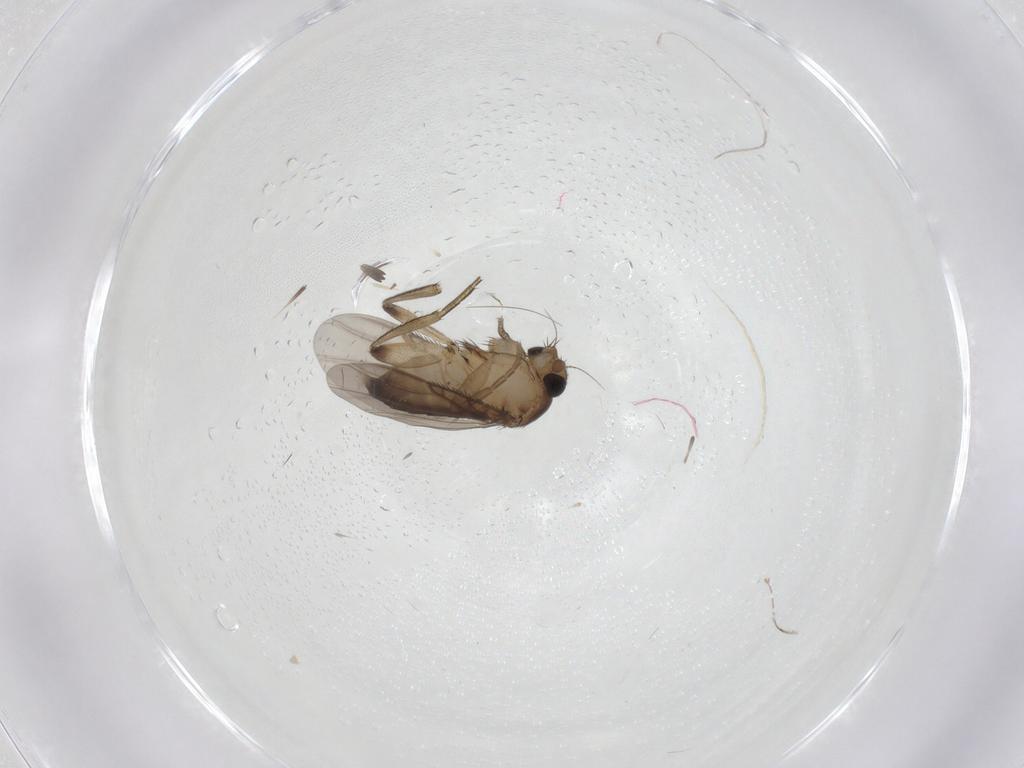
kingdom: Animalia
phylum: Arthropoda
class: Insecta
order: Diptera
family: Phoridae
